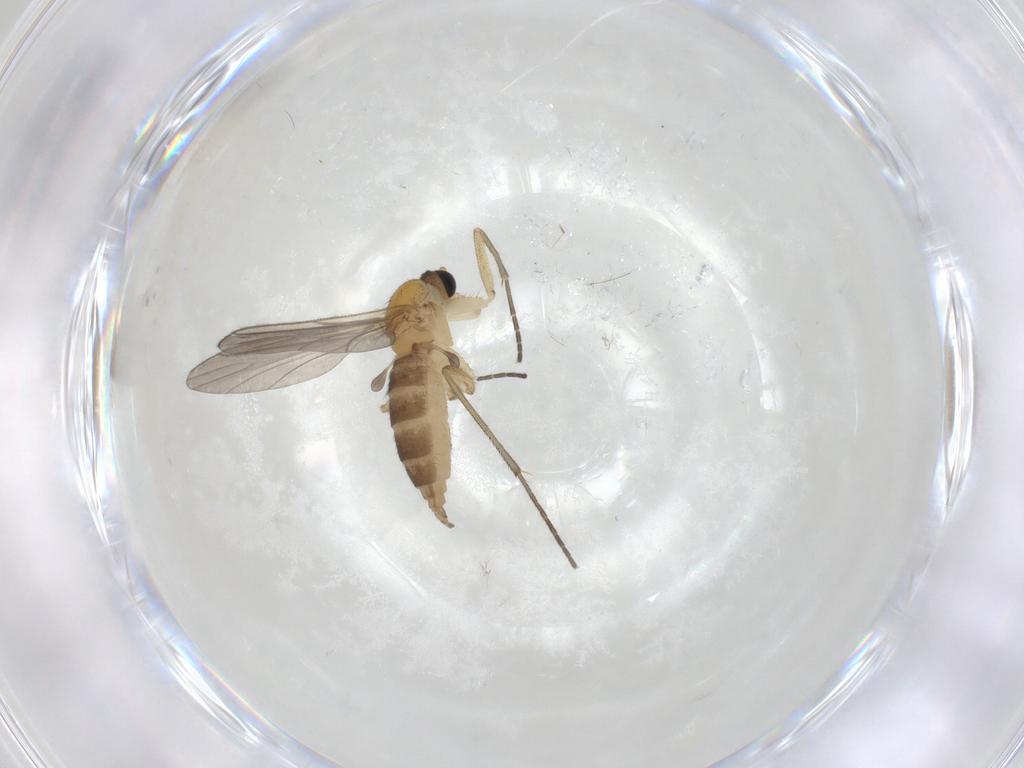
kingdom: Animalia
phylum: Arthropoda
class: Insecta
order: Diptera
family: Sciaridae
